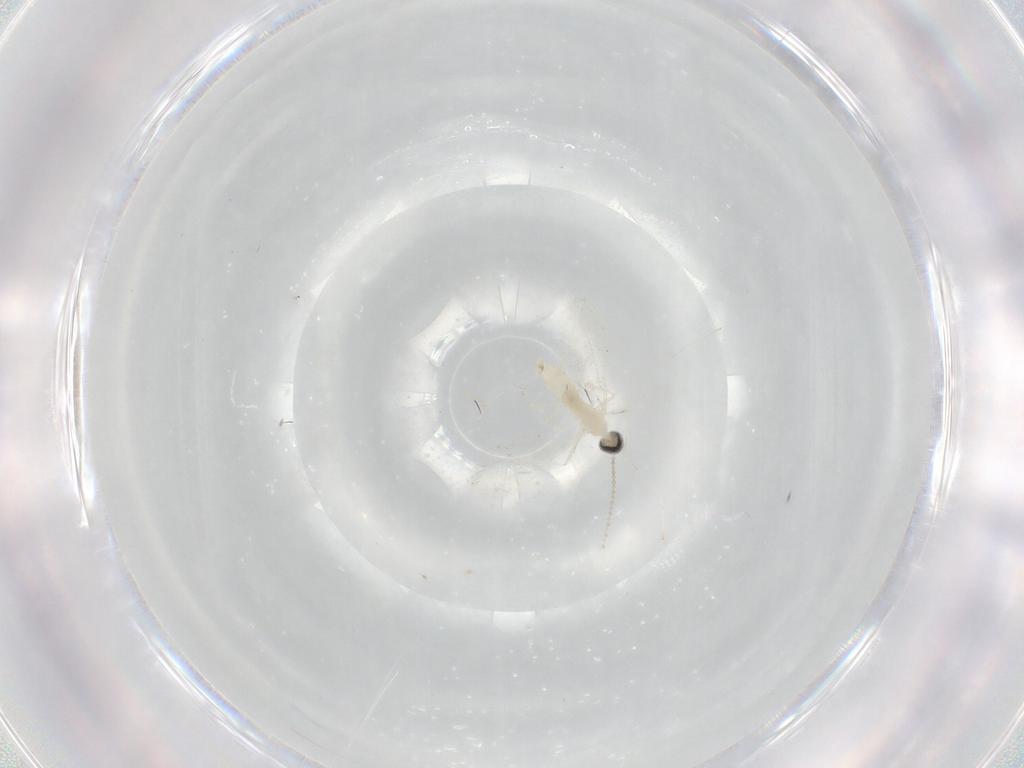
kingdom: Animalia
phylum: Arthropoda
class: Insecta
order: Diptera
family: Cecidomyiidae
